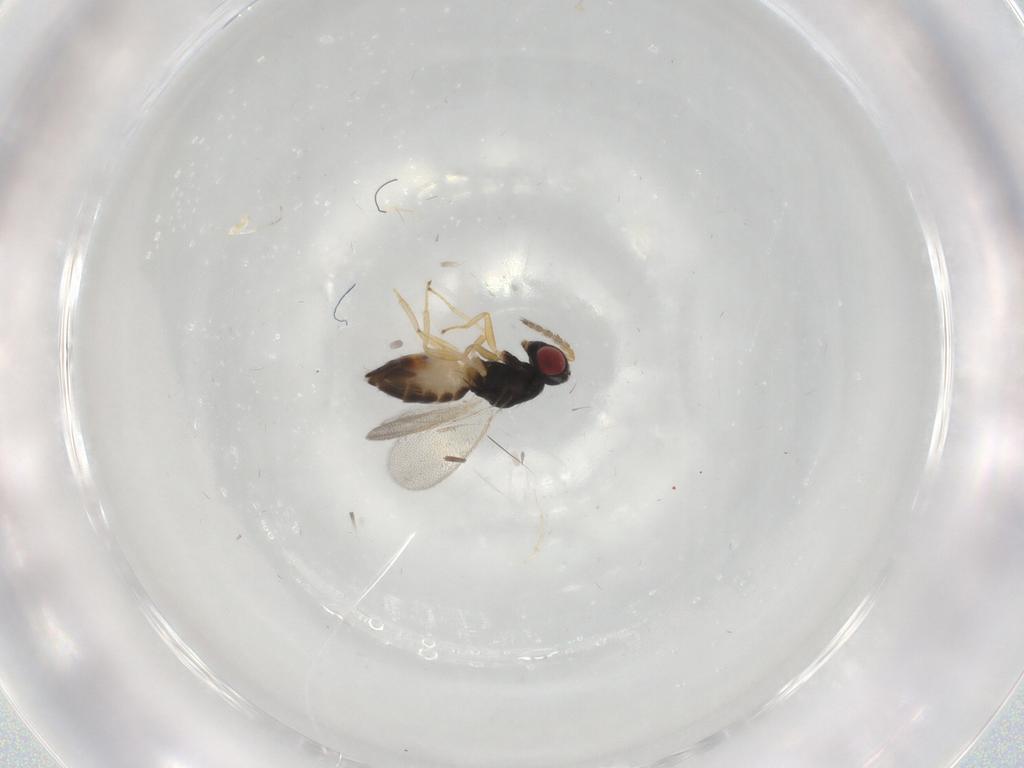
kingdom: Animalia
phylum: Arthropoda
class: Insecta
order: Hymenoptera
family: Eulophidae
